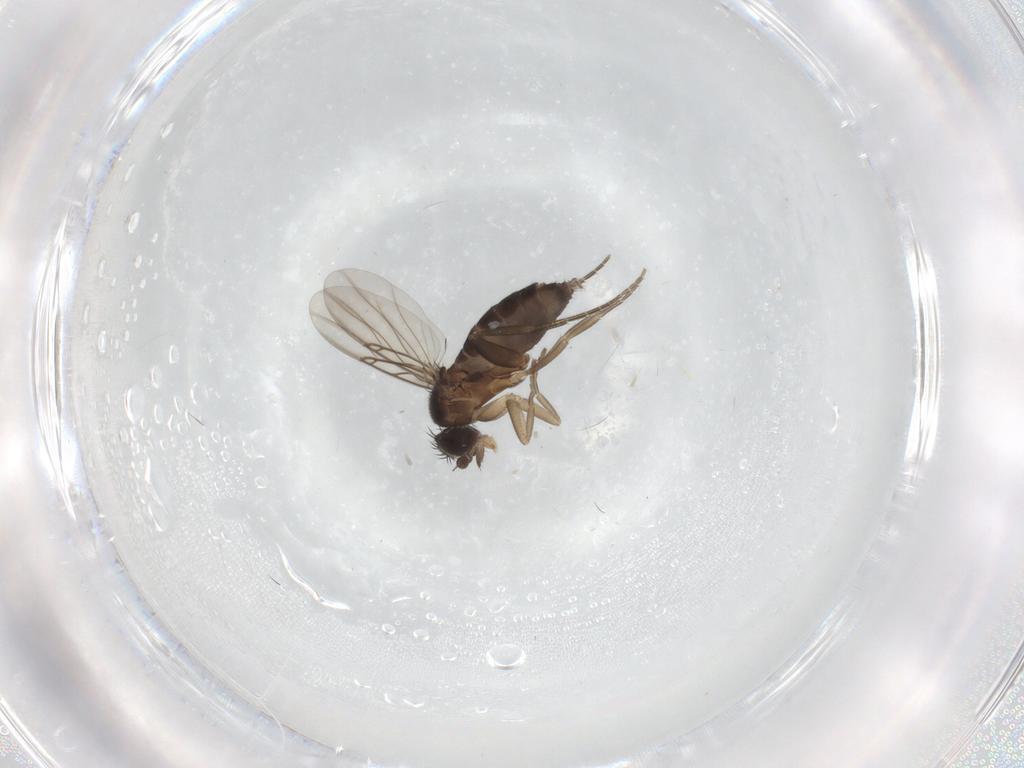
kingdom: Animalia
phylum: Arthropoda
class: Insecta
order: Diptera
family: Phoridae
